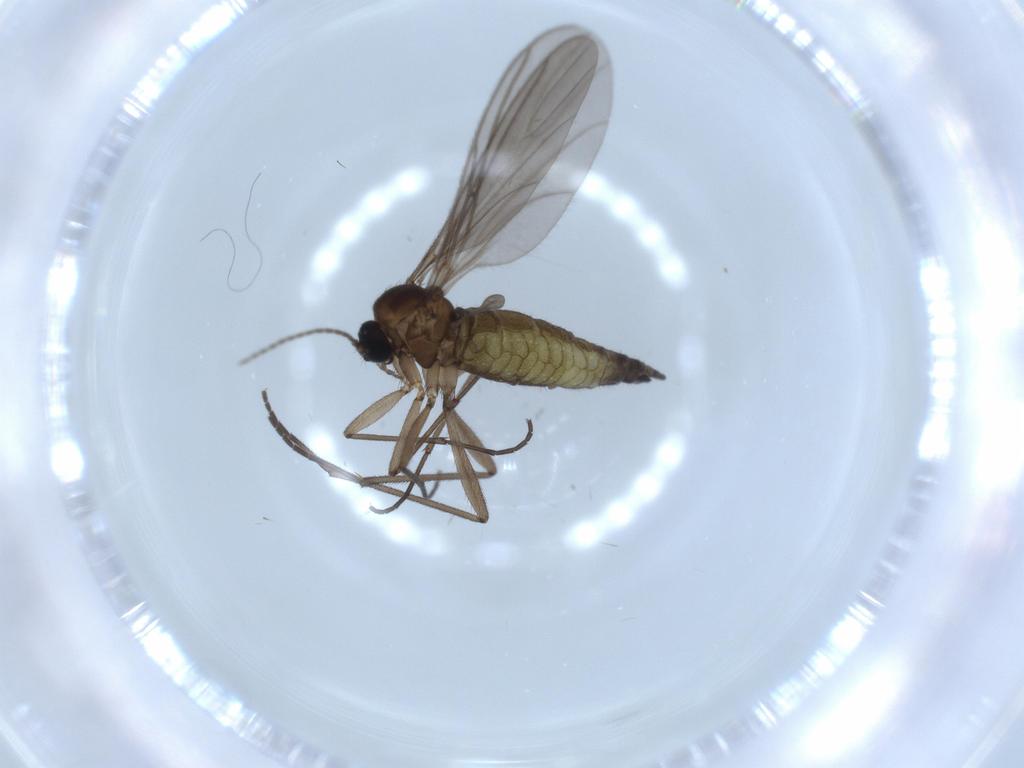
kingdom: Animalia
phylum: Arthropoda
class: Insecta
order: Diptera
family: Sciaridae
